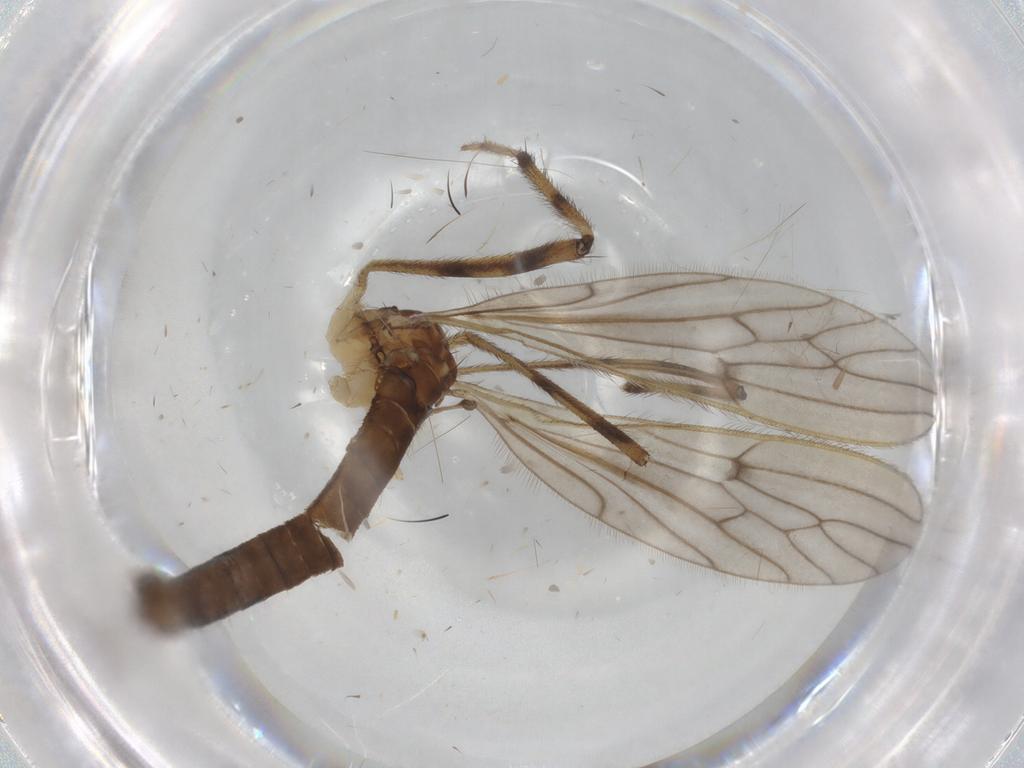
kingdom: Animalia
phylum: Arthropoda
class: Insecta
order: Diptera
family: Limoniidae
